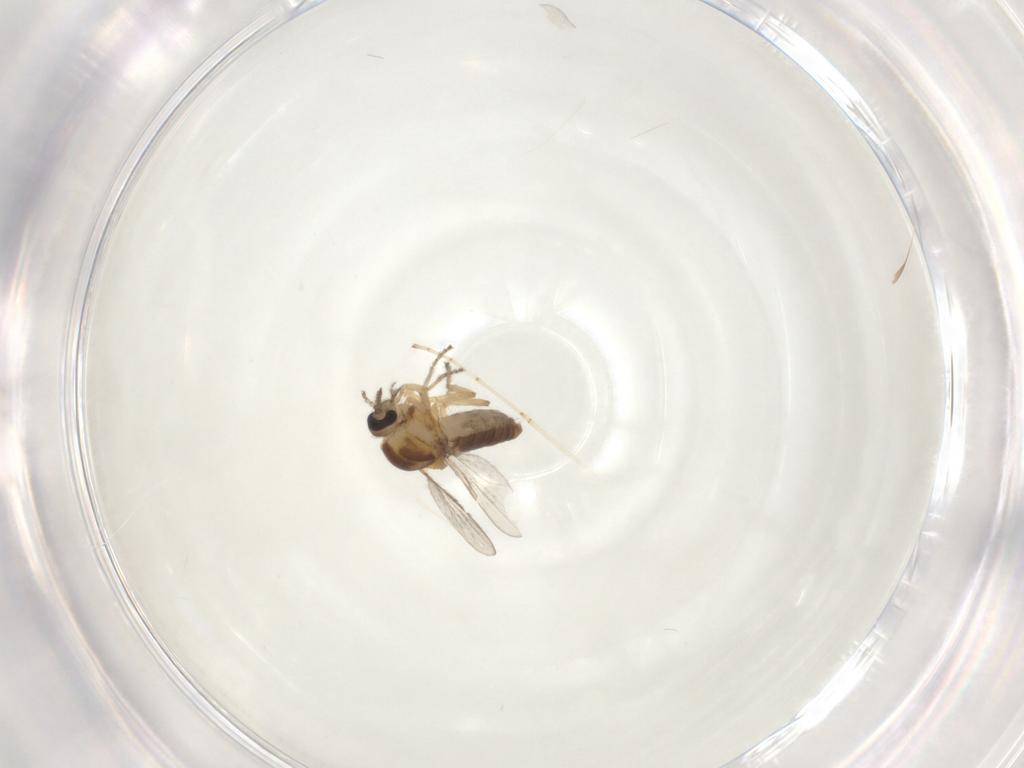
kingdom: Animalia
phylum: Arthropoda
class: Insecta
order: Diptera
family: Ceratopogonidae
